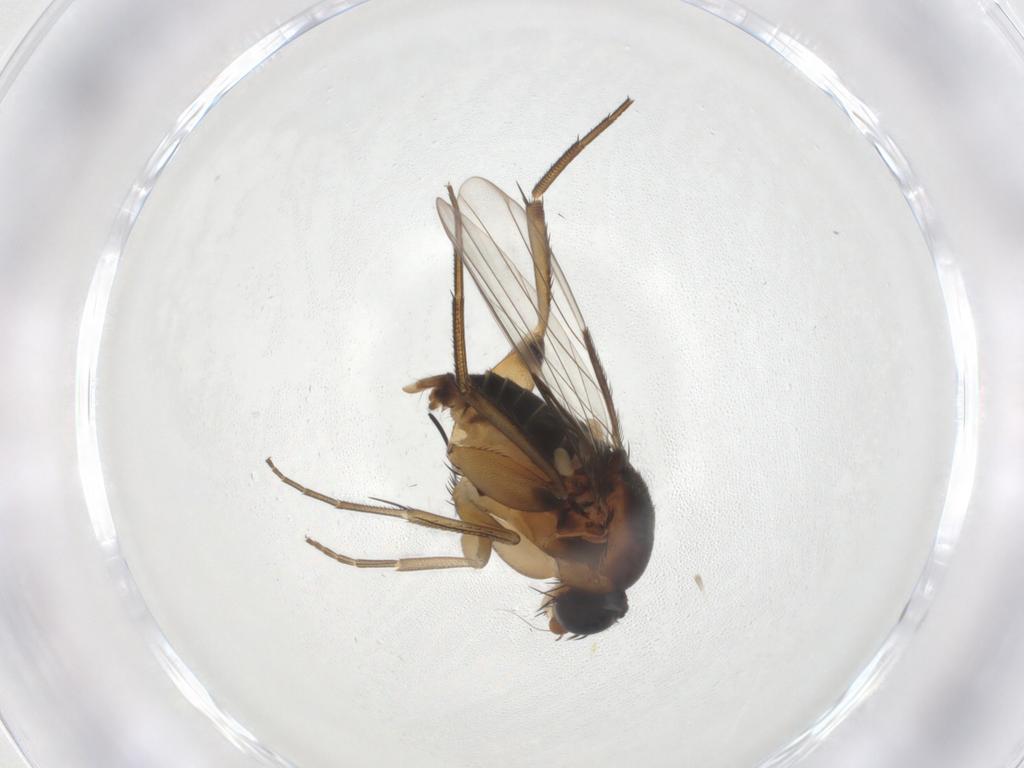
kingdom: Animalia
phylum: Arthropoda
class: Insecta
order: Diptera
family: Phoridae
